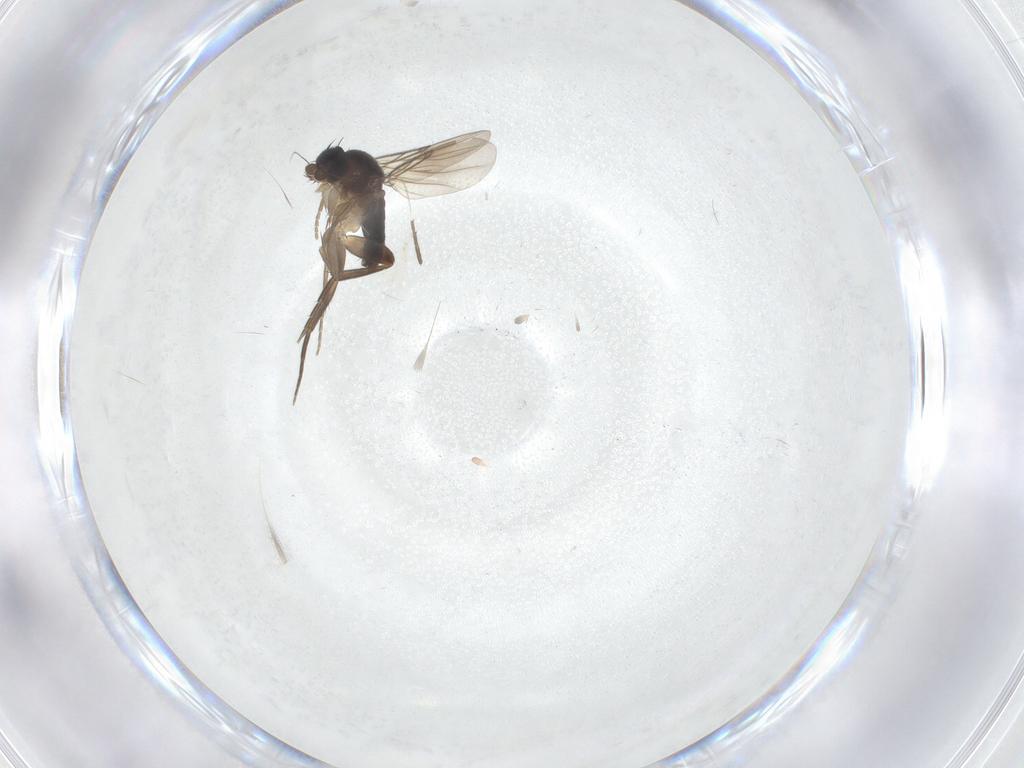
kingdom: Animalia
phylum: Arthropoda
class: Insecta
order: Diptera
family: Phoridae
